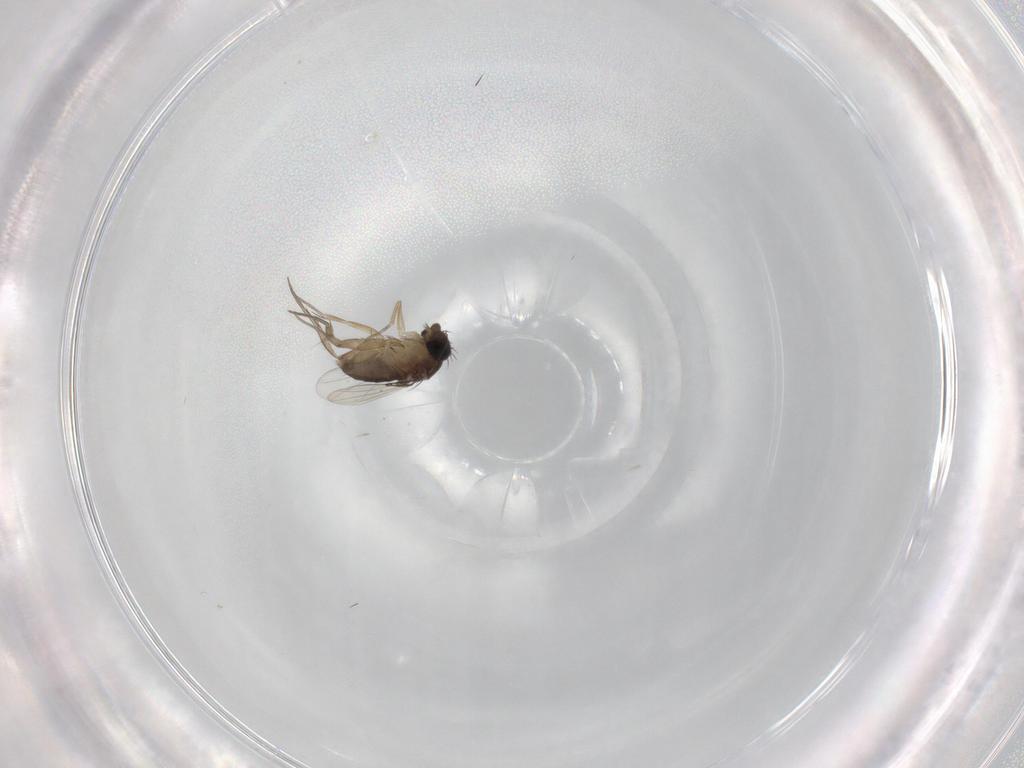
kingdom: Animalia
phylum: Arthropoda
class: Insecta
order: Diptera
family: Phoridae
